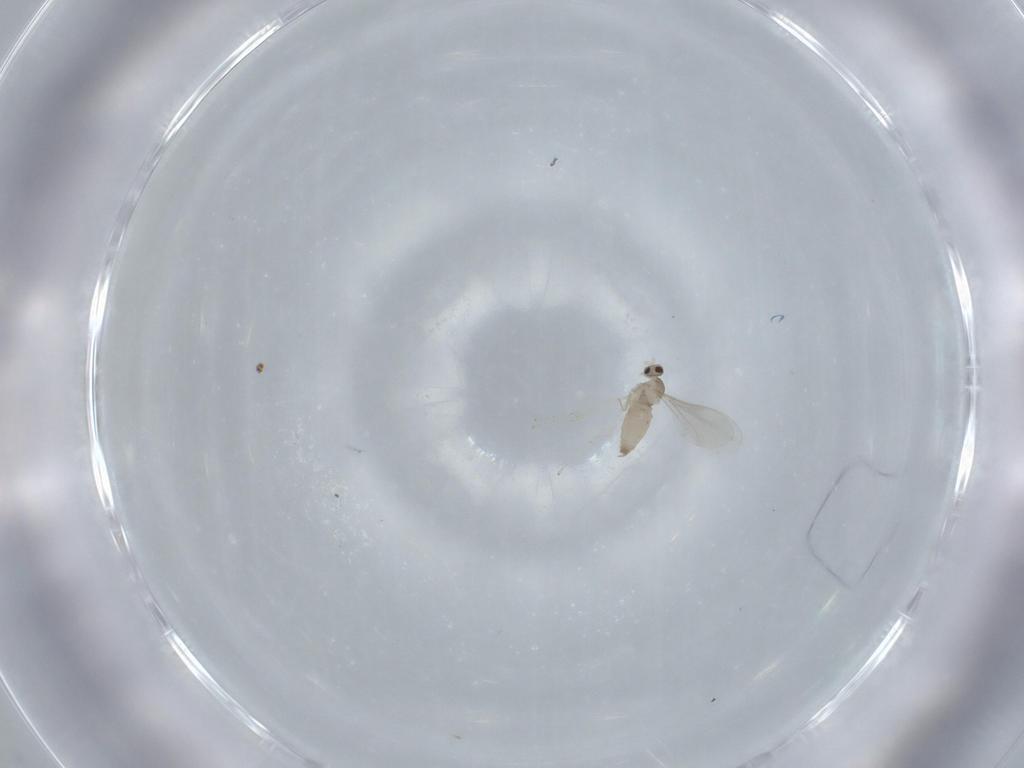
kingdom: Animalia
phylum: Arthropoda
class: Insecta
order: Diptera
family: Cecidomyiidae
